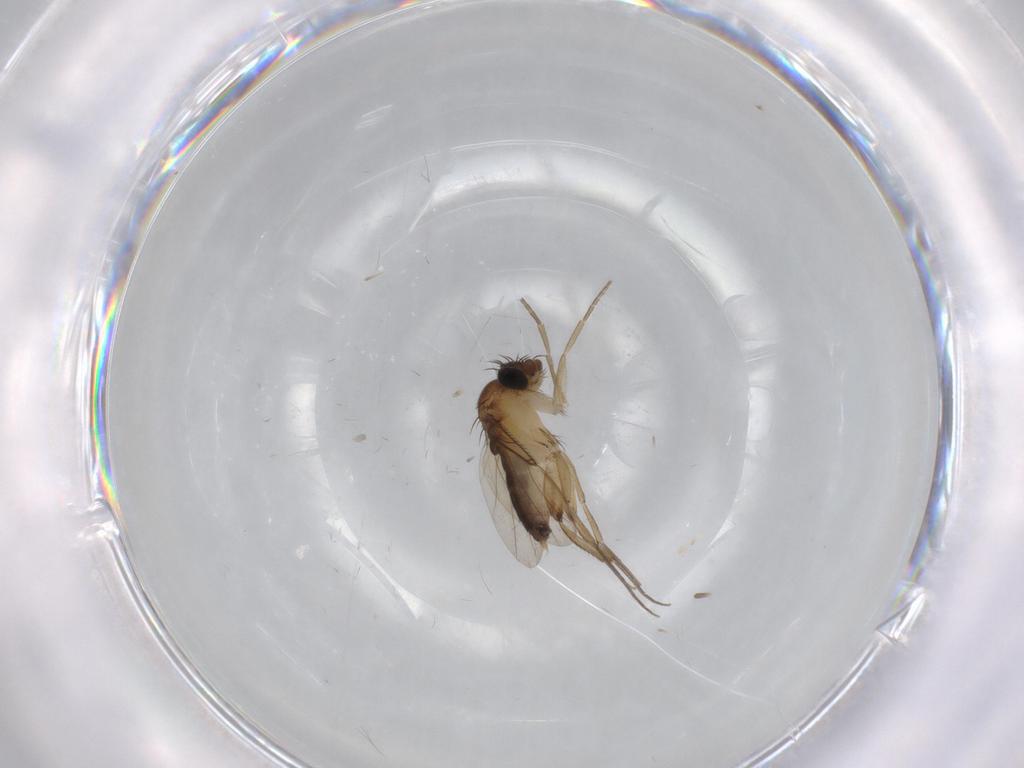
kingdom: Animalia
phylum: Arthropoda
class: Insecta
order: Diptera
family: Phoridae
